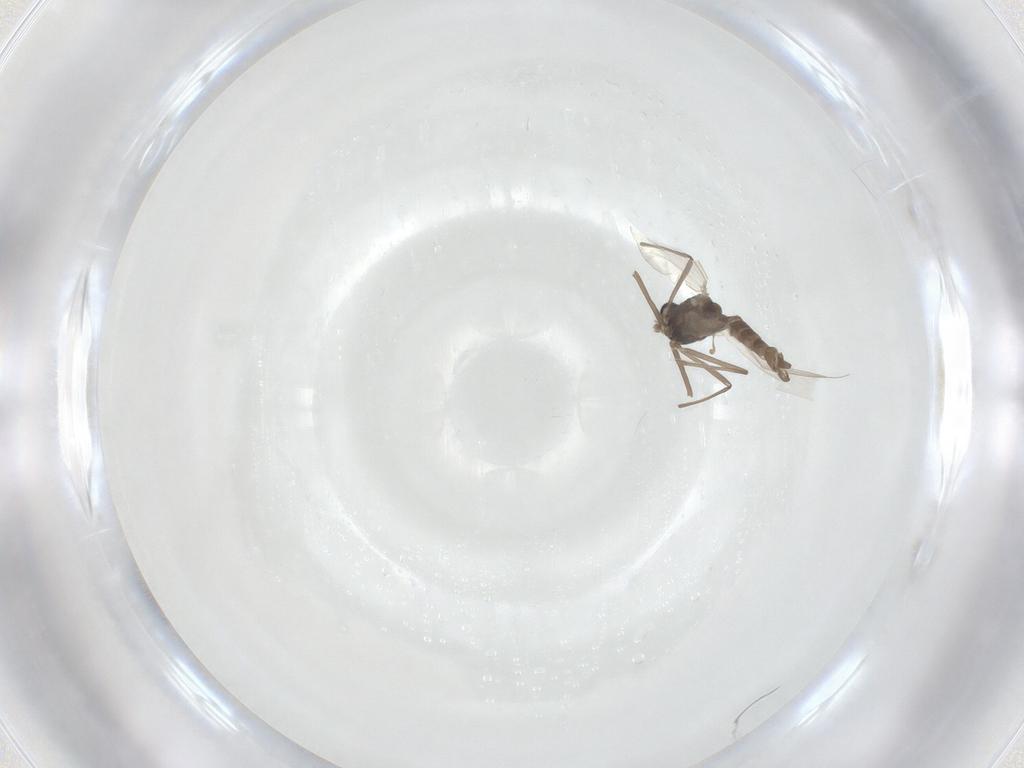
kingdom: Animalia
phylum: Arthropoda
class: Insecta
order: Diptera
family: Chironomidae
